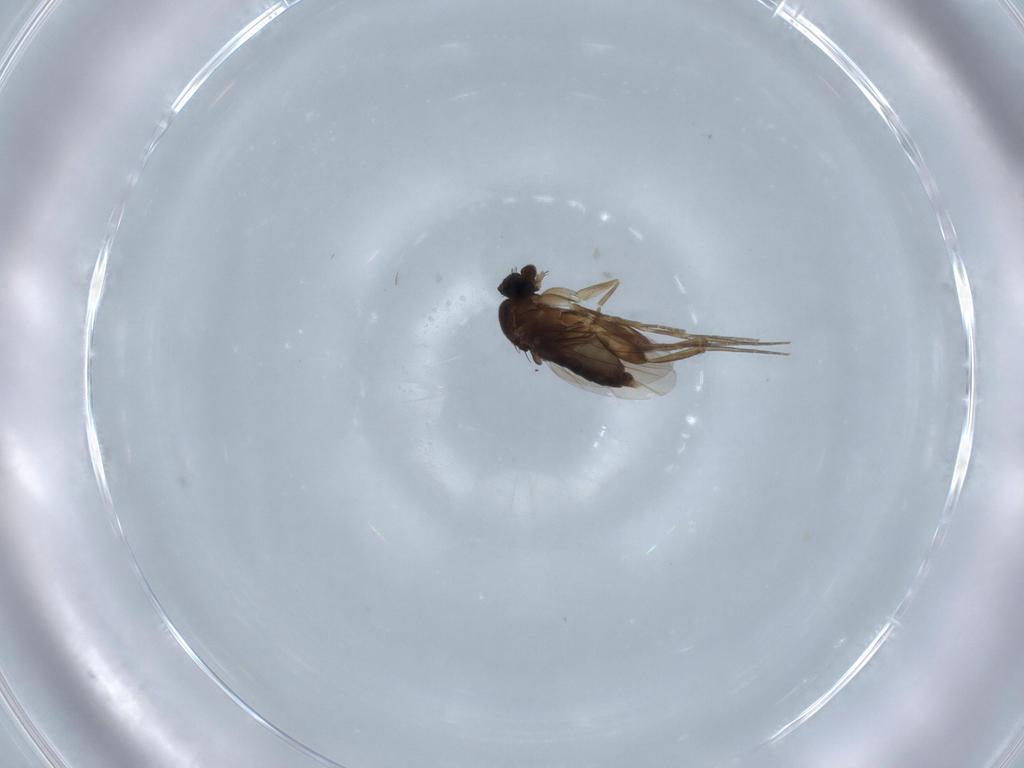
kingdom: Animalia
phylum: Arthropoda
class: Insecta
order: Diptera
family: Phoridae
